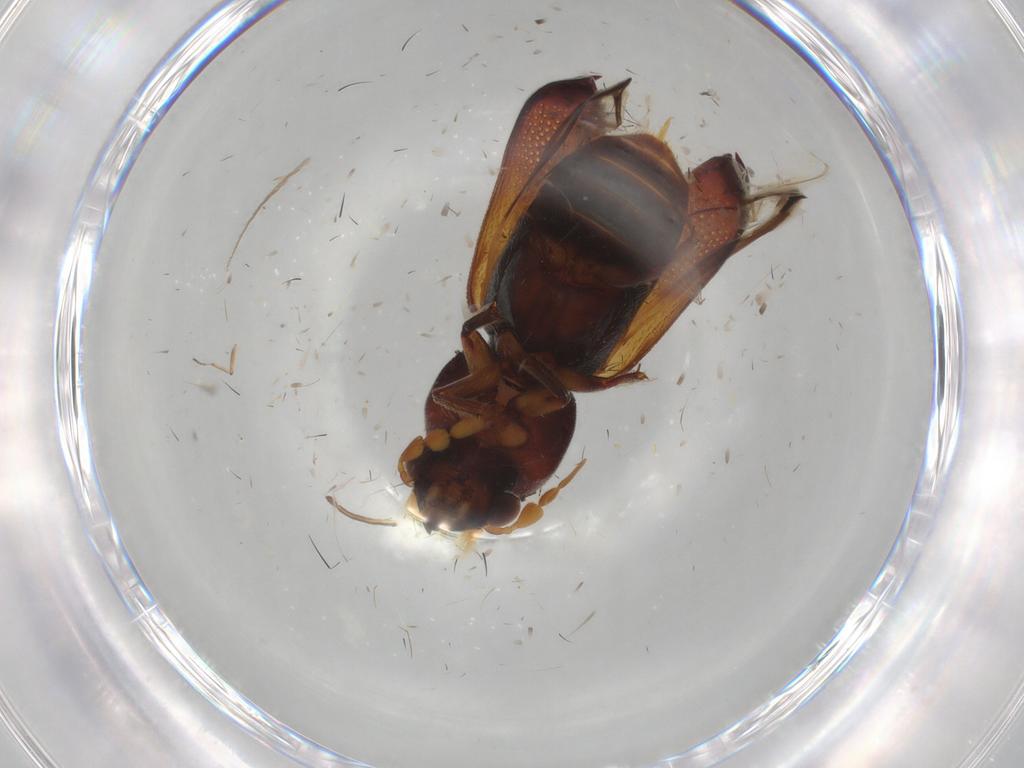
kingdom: Animalia
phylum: Arthropoda
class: Insecta
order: Coleoptera
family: Bostrichidae
